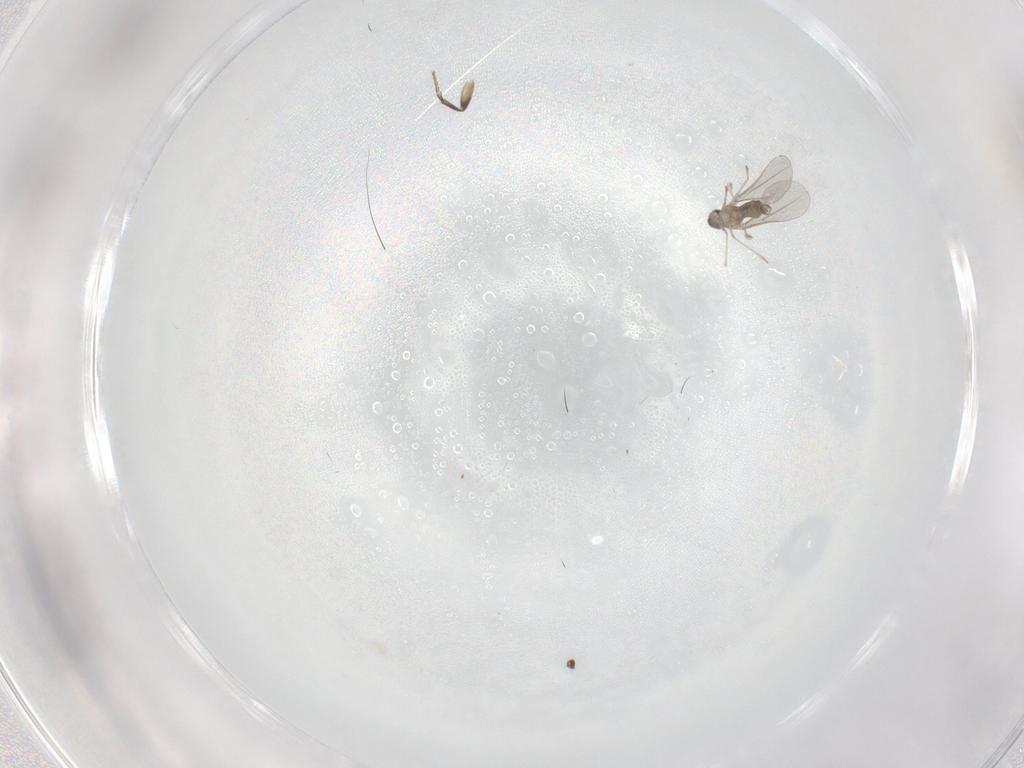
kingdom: Animalia
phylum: Arthropoda
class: Insecta
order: Diptera
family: Cecidomyiidae
